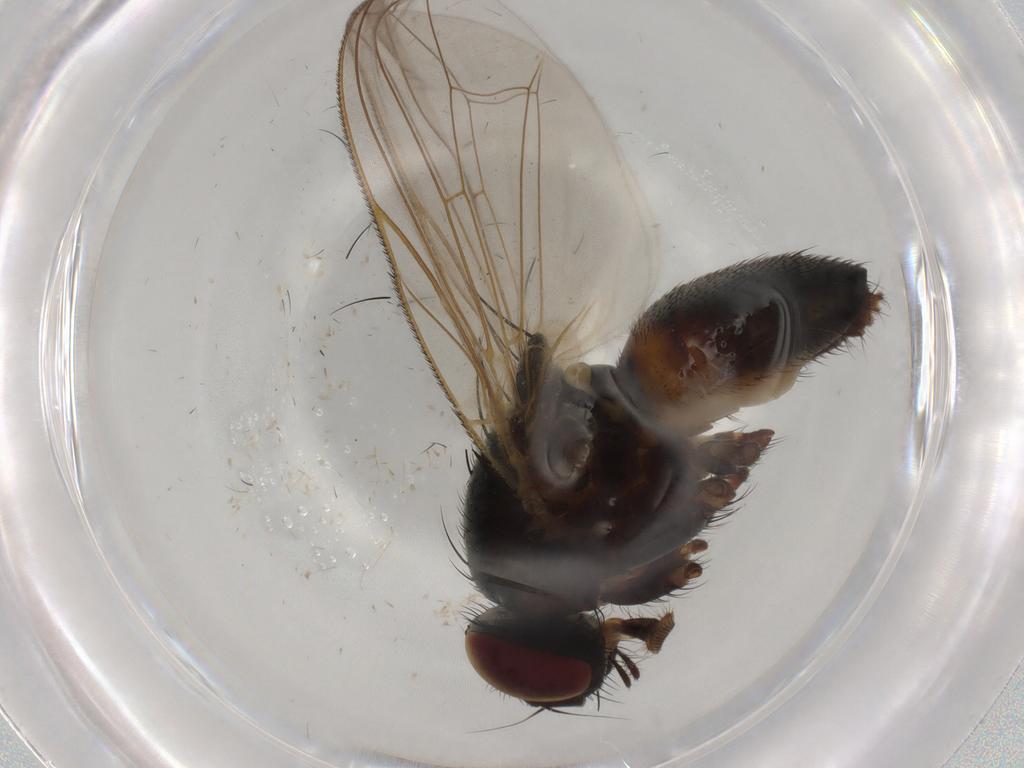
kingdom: Animalia
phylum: Arthropoda
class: Insecta
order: Diptera
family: Fannia
